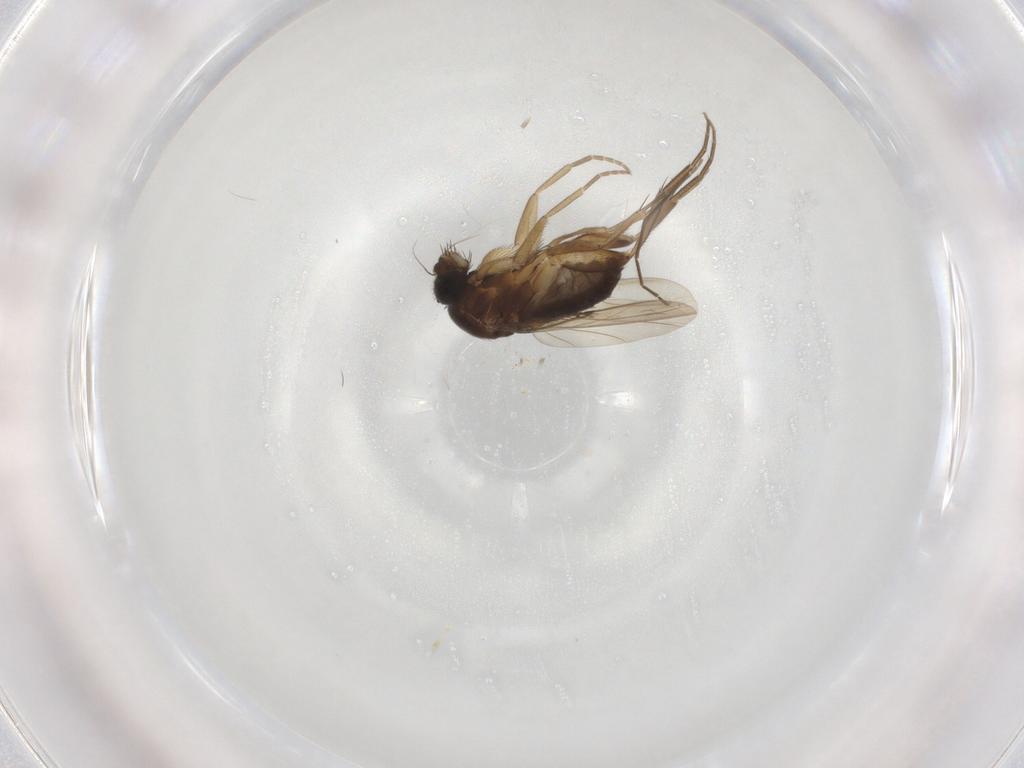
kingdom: Animalia
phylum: Arthropoda
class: Insecta
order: Diptera
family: Phoridae
